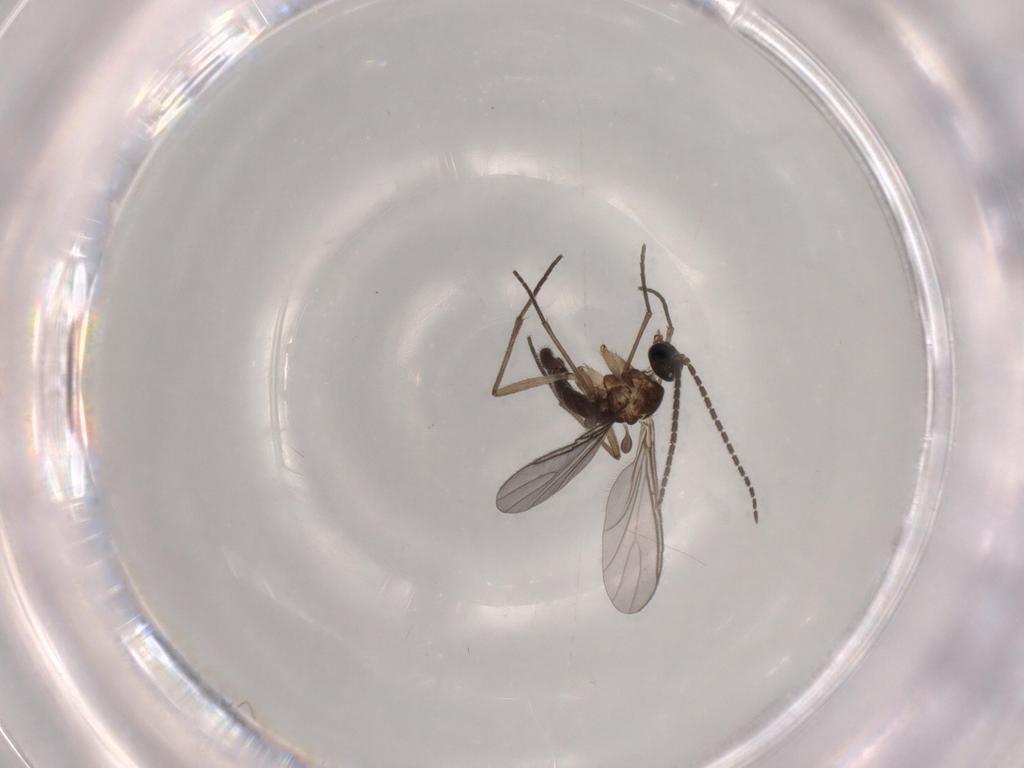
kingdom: Animalia
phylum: Arthropoda
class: Insecta
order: Diptera
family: Sciaridae
